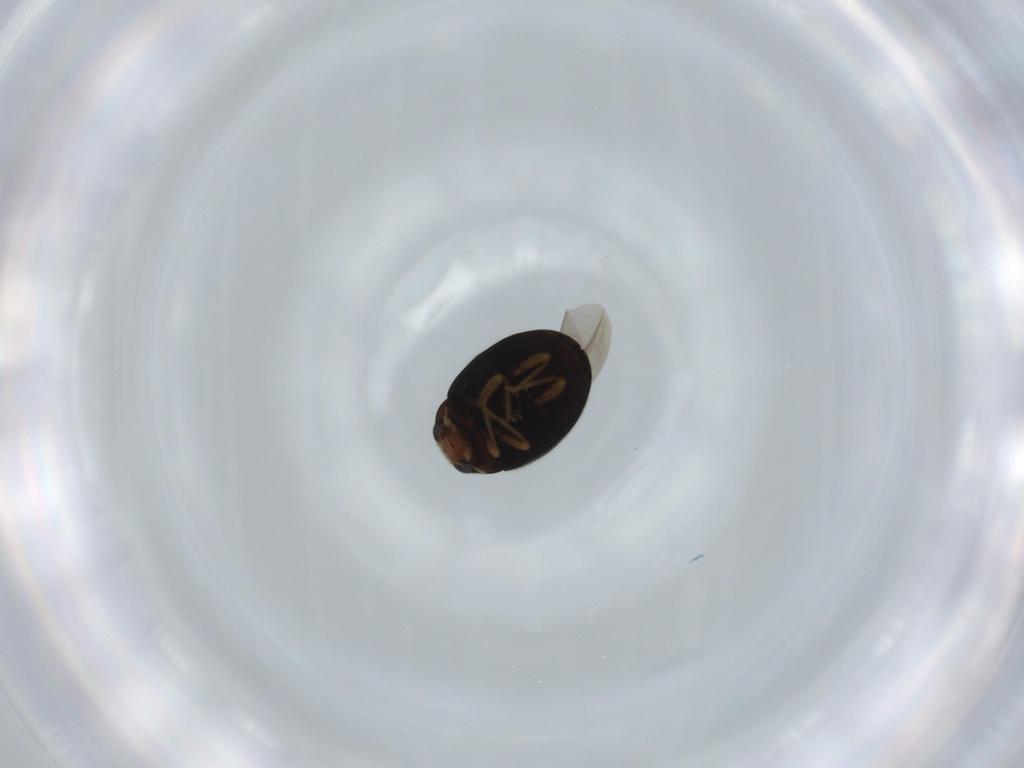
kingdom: Animalia
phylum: Arthropoda
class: Insecta
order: Coleoptera
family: Coccinellidae
